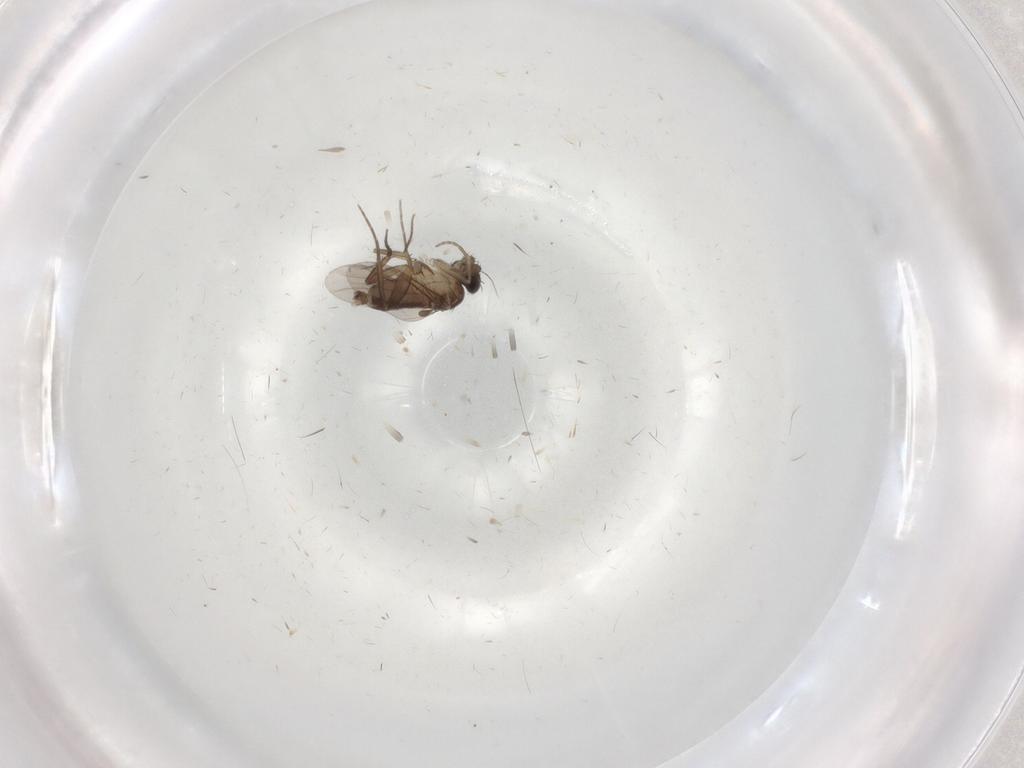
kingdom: Animalia
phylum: Arthropoda
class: Insecta
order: Diptera
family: Phoridae
